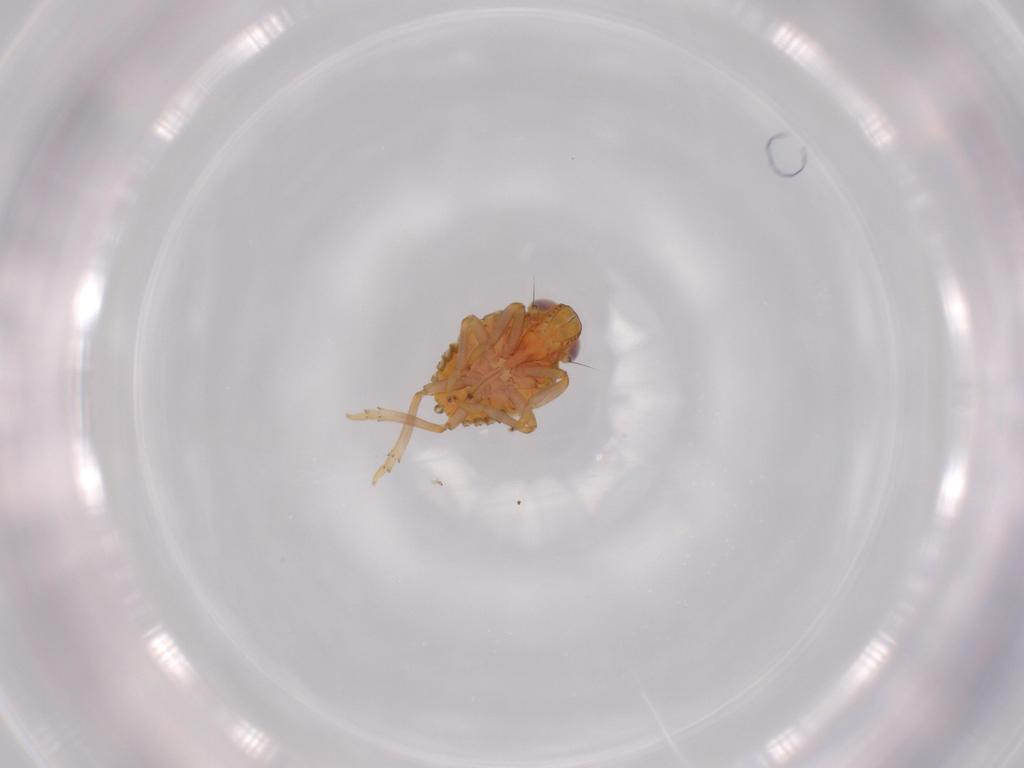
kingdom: Animalia
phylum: Arthropoda
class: Insecta
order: Hemiptera
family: Issidae
